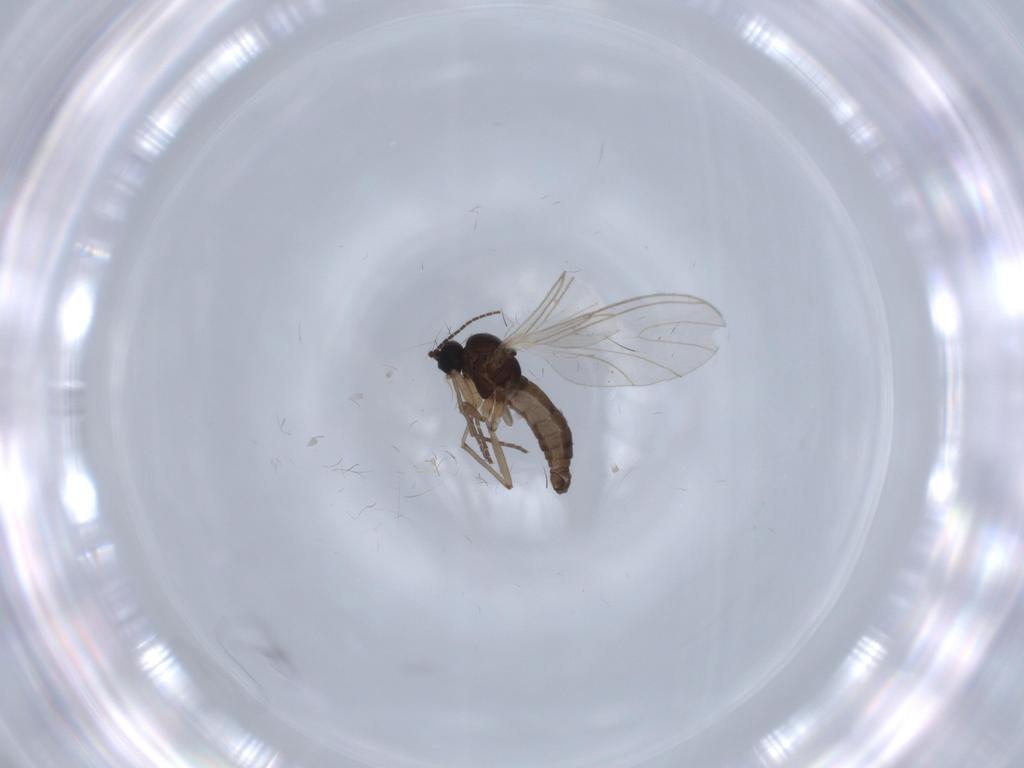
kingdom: Animalia
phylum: Arthropoda
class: Insecta
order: Diptera
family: Sciaridae
